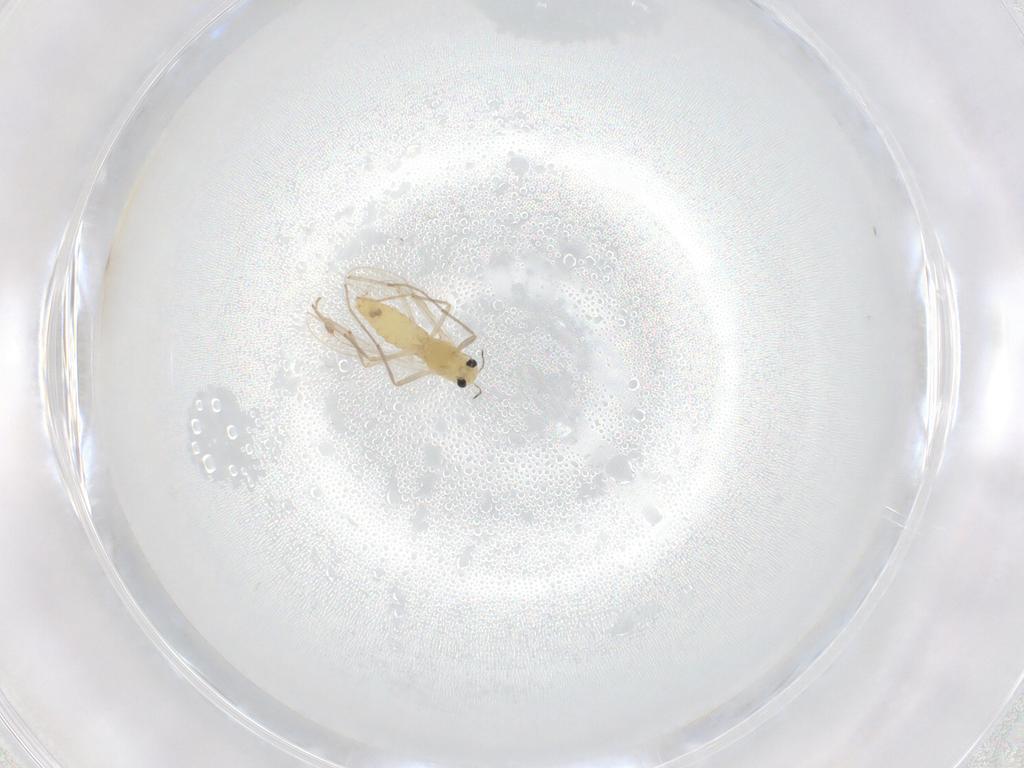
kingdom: Animalia
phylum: Arthropoda
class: Insecta
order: Diptera
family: Chironomidae
